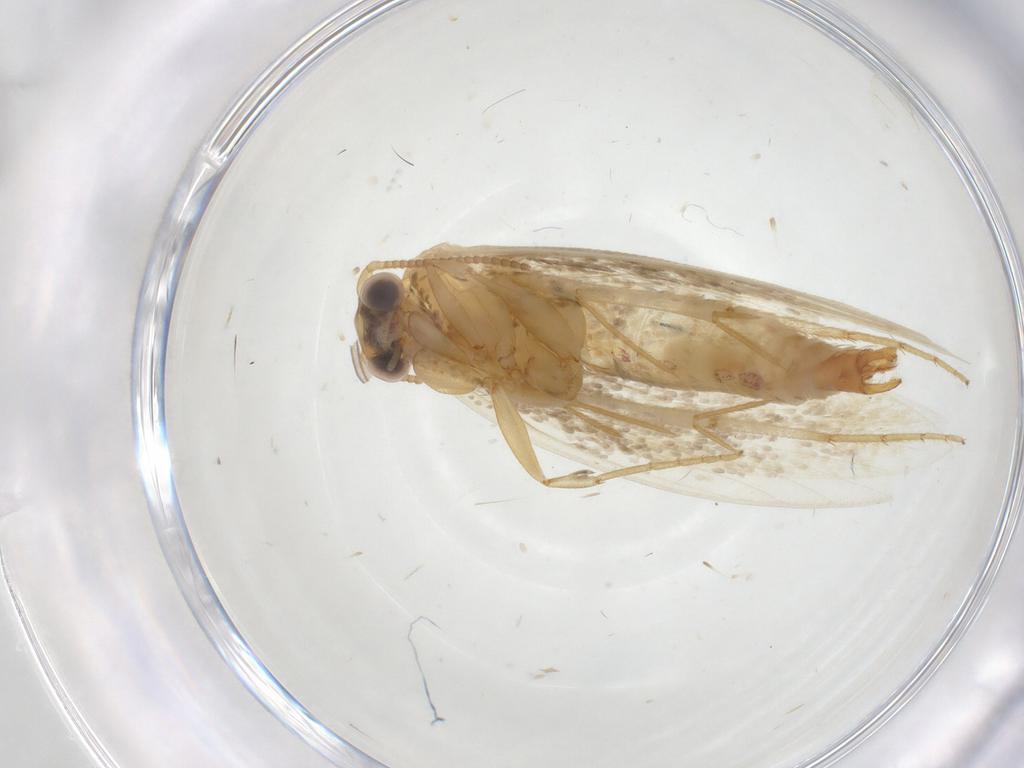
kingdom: Animalia
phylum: Arthropoda
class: Insecta
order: Lepidoptera
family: Tineidae
